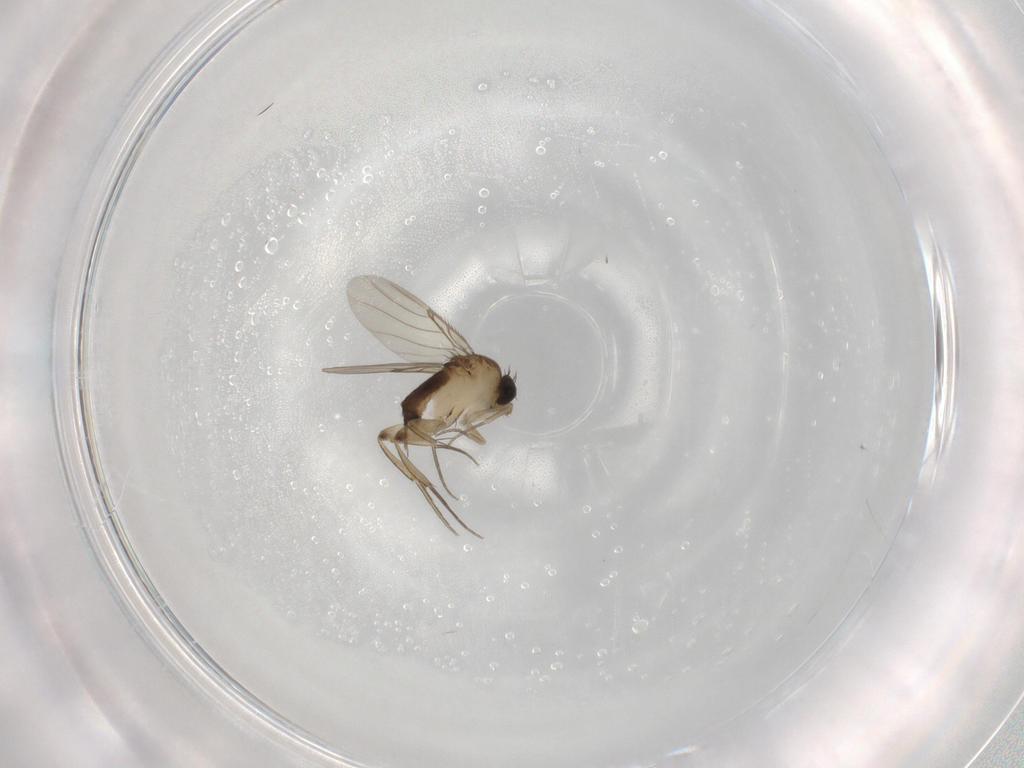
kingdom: Animalia
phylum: Arthropoda
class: Insecta
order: Diptera
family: Phoridae
